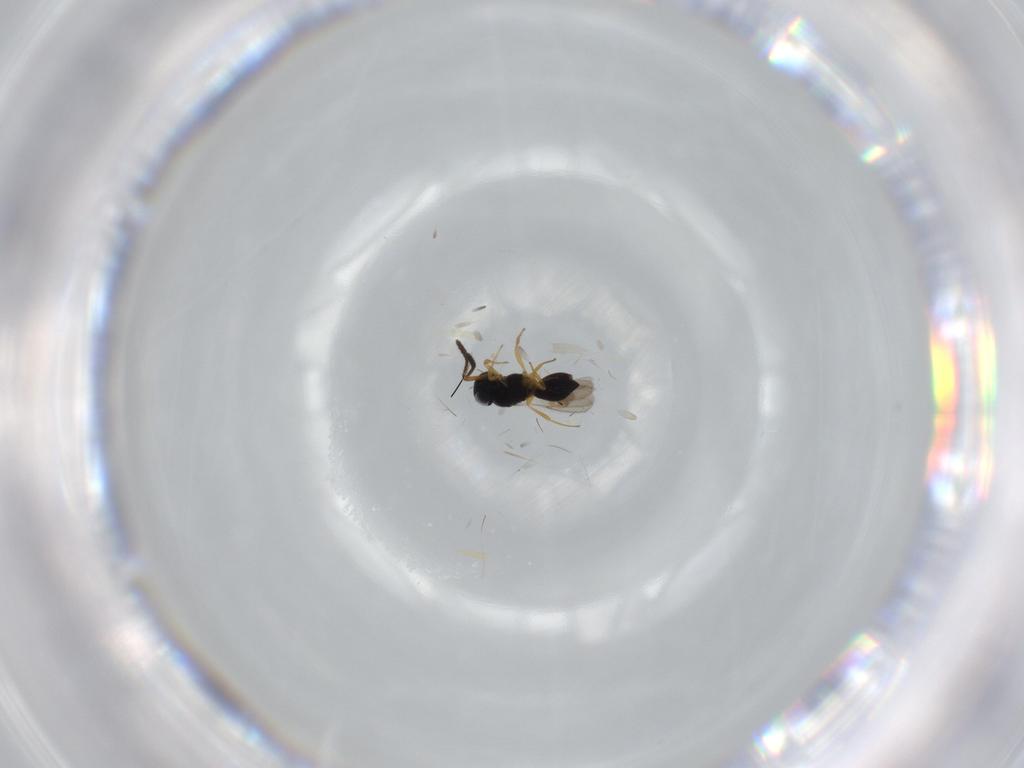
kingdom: Animalia
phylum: Arthropoda
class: Insecta
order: Hymenoptera
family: Scelionidae
